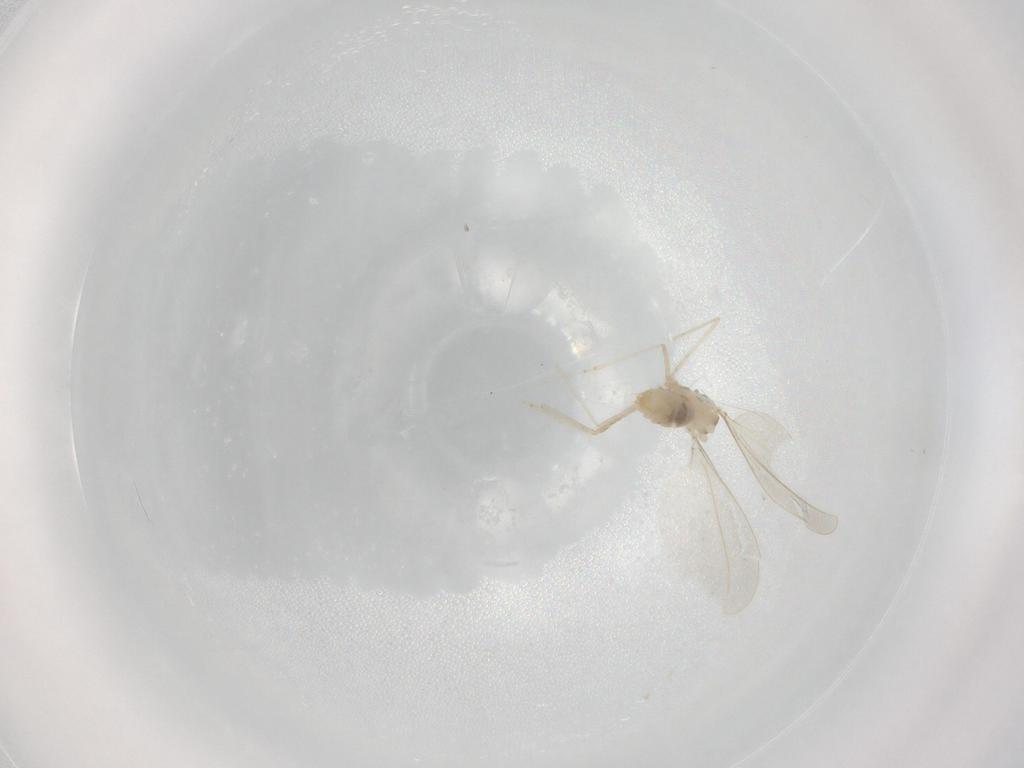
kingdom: Animalia
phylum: Arthropoda
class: Insecta
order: Diptera
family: Cecidomyiidae
